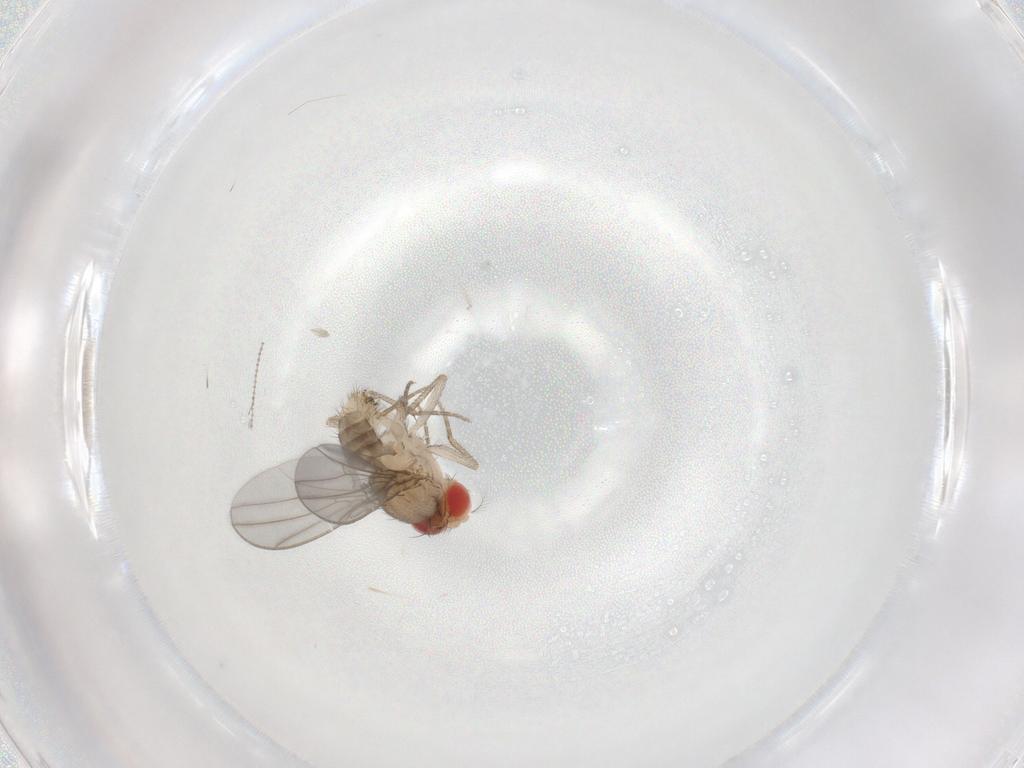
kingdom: Animalia
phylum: Arthropoda
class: Insecta
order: Diptera
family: Drosophilidae
